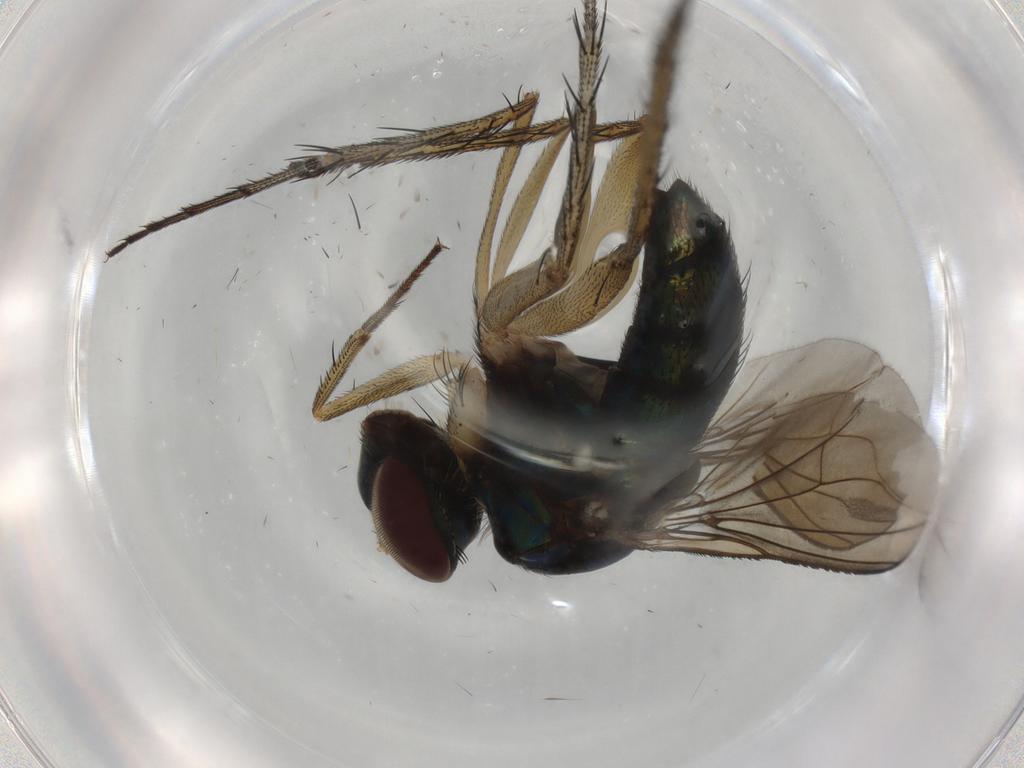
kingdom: Animalia
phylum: Arthropoda
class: Insecta
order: Diptera
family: Dolichopodidae
